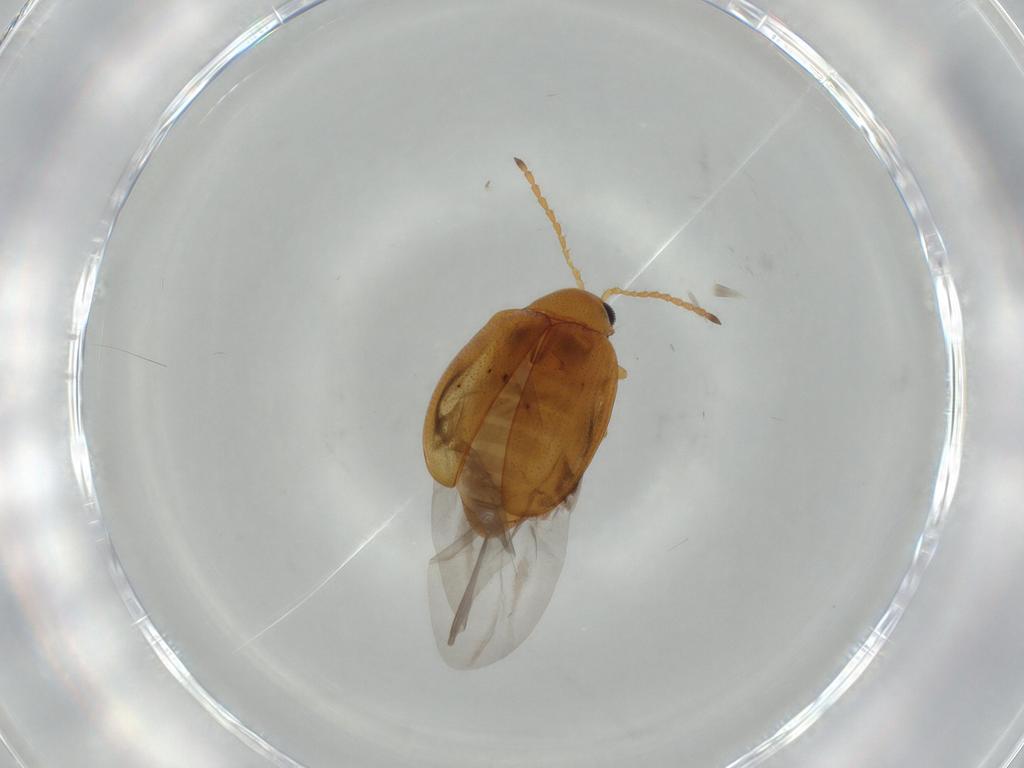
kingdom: Animalia
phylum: Arthropoda
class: Insecta
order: Coleoptera
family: Chrysomelidae
